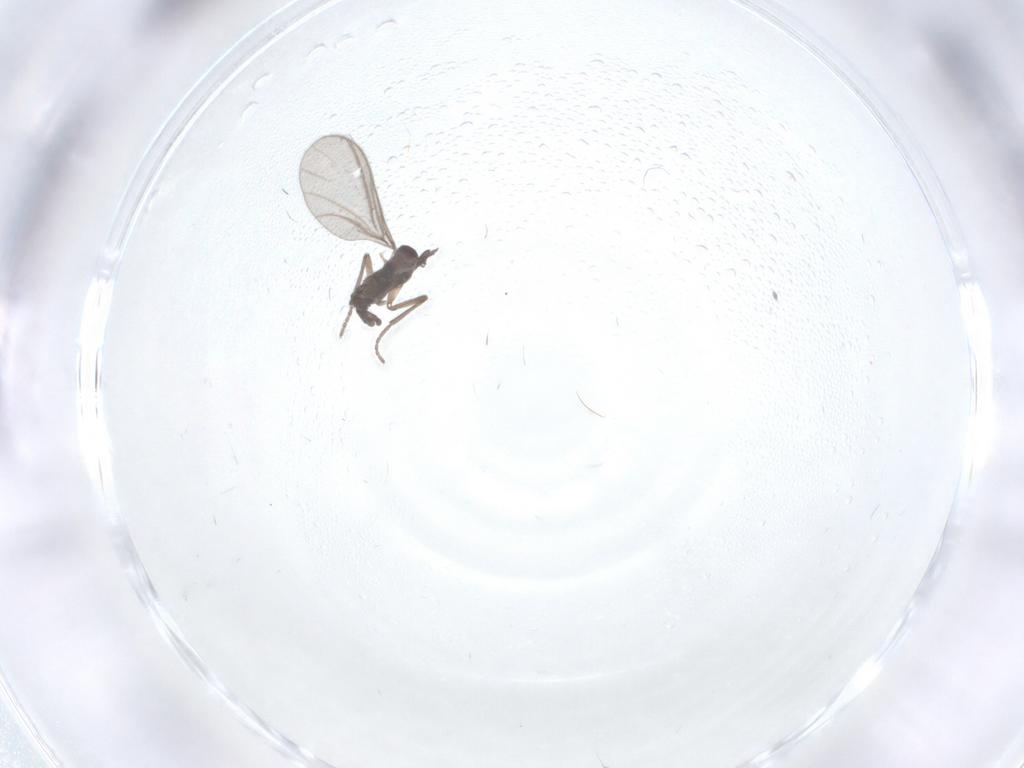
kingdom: Animalia
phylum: Arthropoda
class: Insecta
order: Diptera
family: Sciaridae
